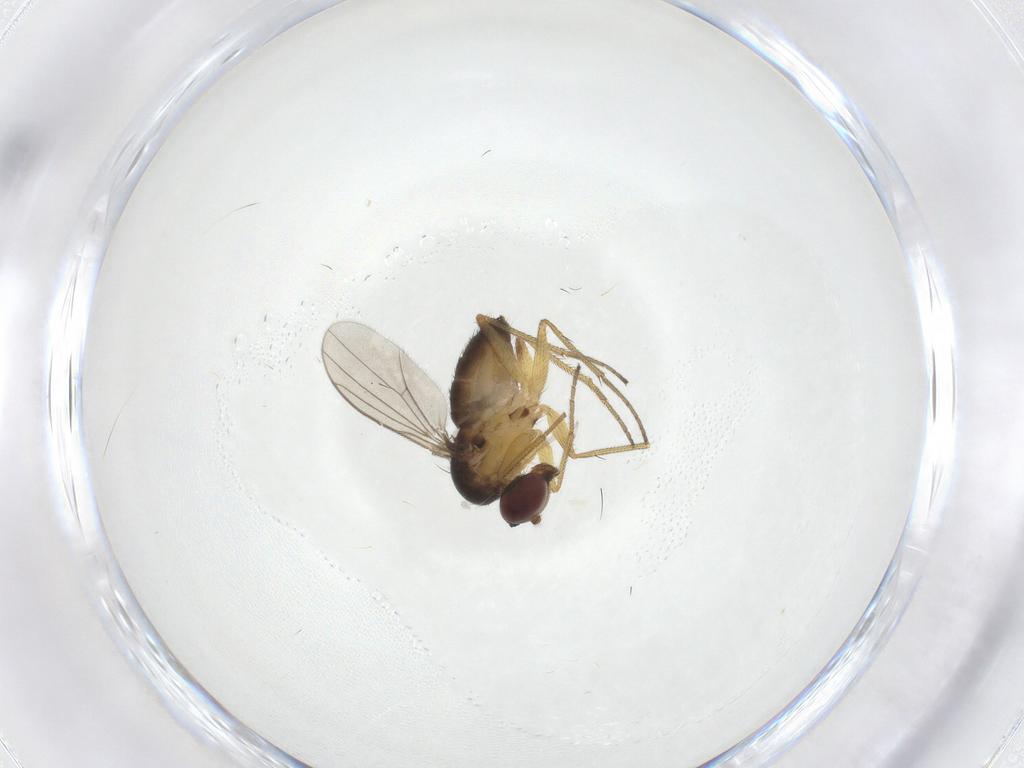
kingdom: Animalia
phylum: Arthropoda
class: Insecta
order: Diptera
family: Dolichopodidae
